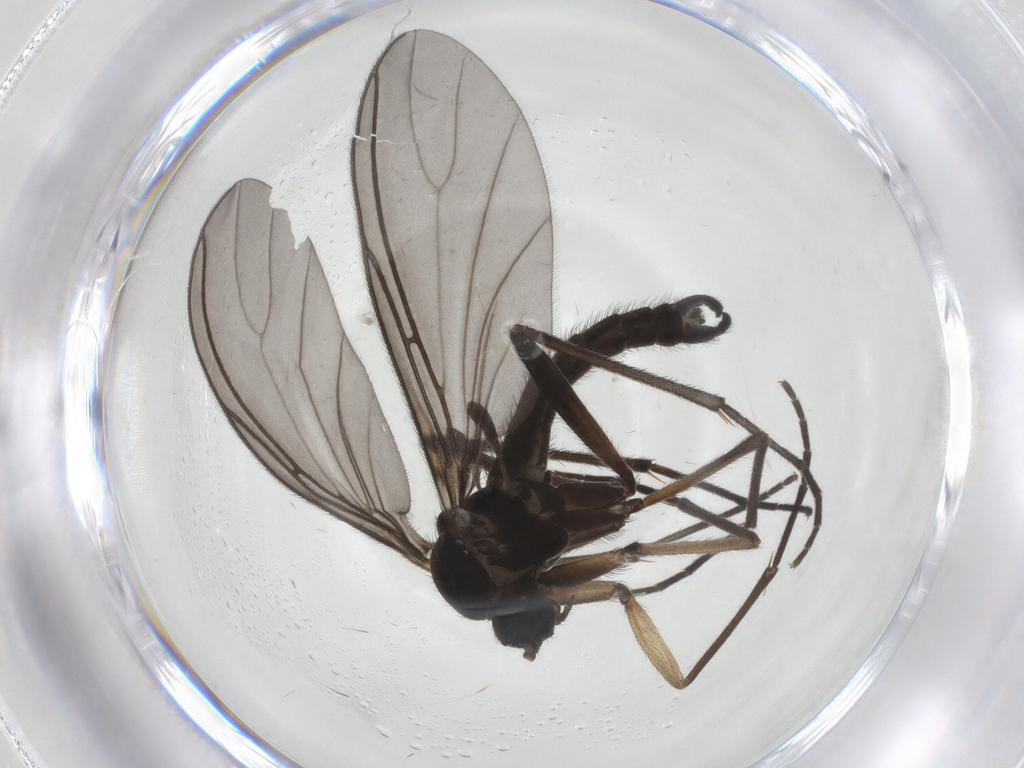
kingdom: Animalia
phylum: Arthropoda
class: Insecta
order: Diptera
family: Sciaridae
